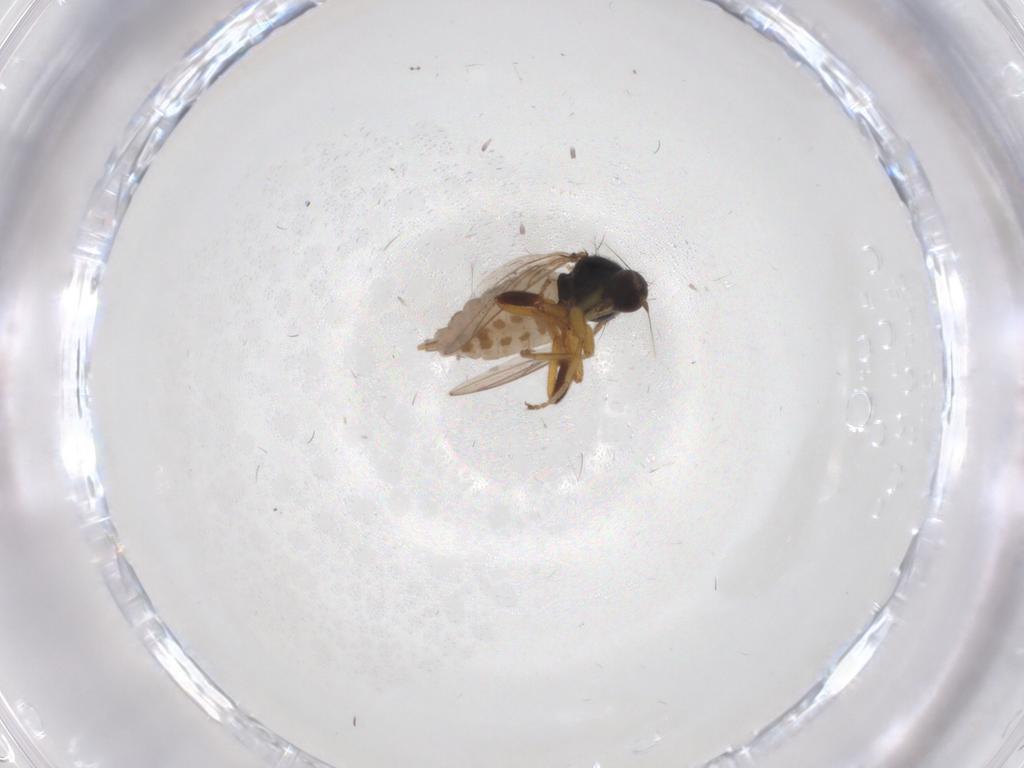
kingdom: Animalia
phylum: Arthropoda
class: Insecta
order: Diptera
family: Hybotidae
